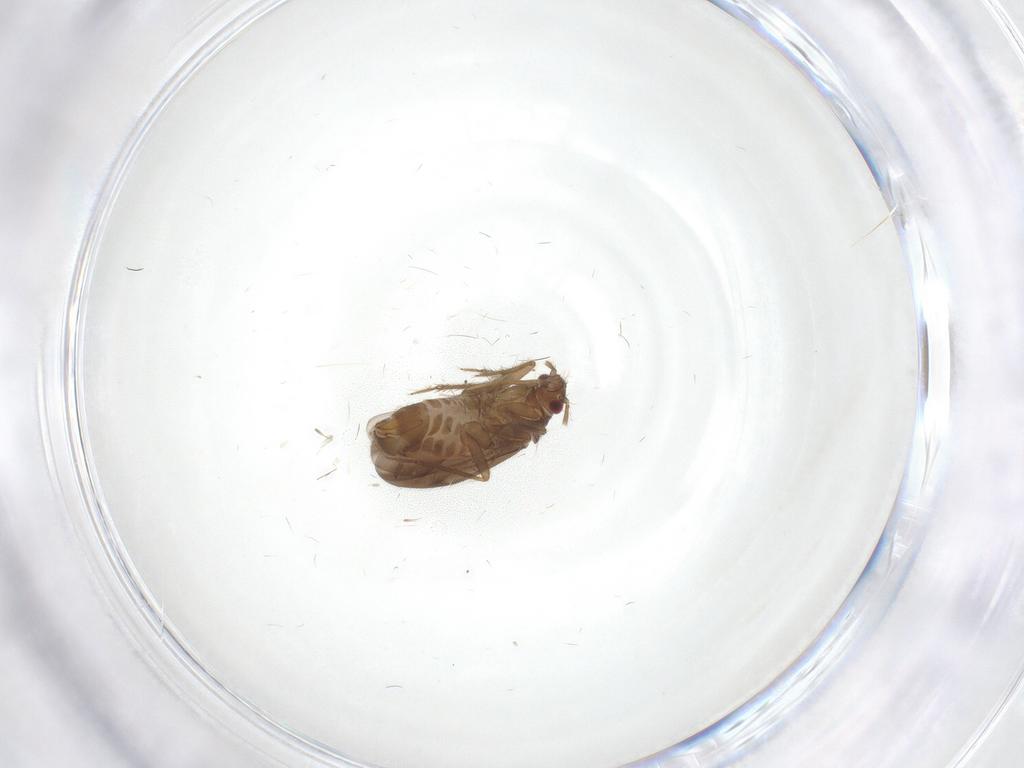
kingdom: Animalia
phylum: Arthropoda
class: Insecta
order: Hemiptera
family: Ceratocombidae
